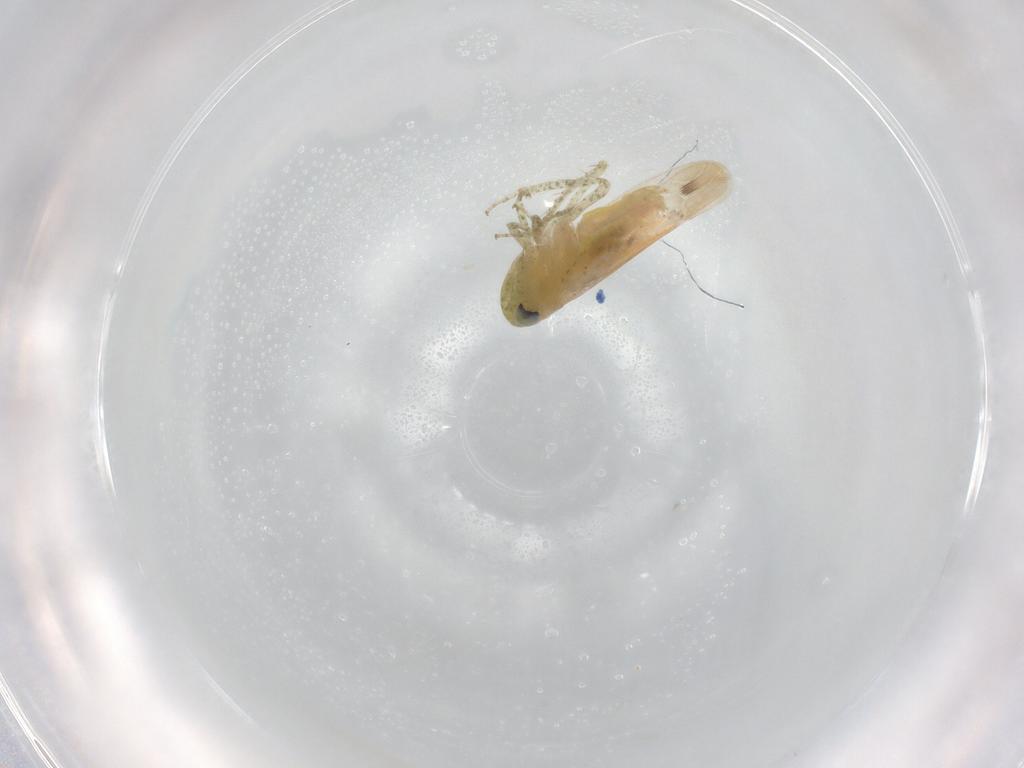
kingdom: Animalia
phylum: Arthropoda
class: Insecta
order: Hemiptera
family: Cicadellidae
